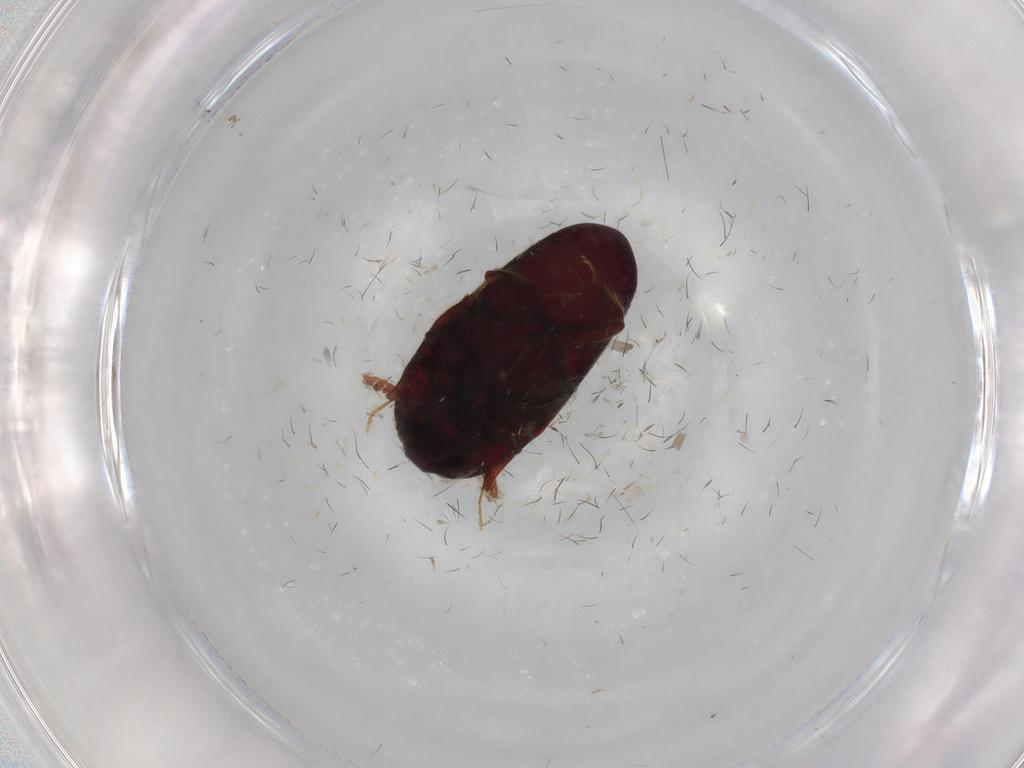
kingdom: Animalia
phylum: Arthropoda
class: Insecta
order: Coleoptera
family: Throscidae
